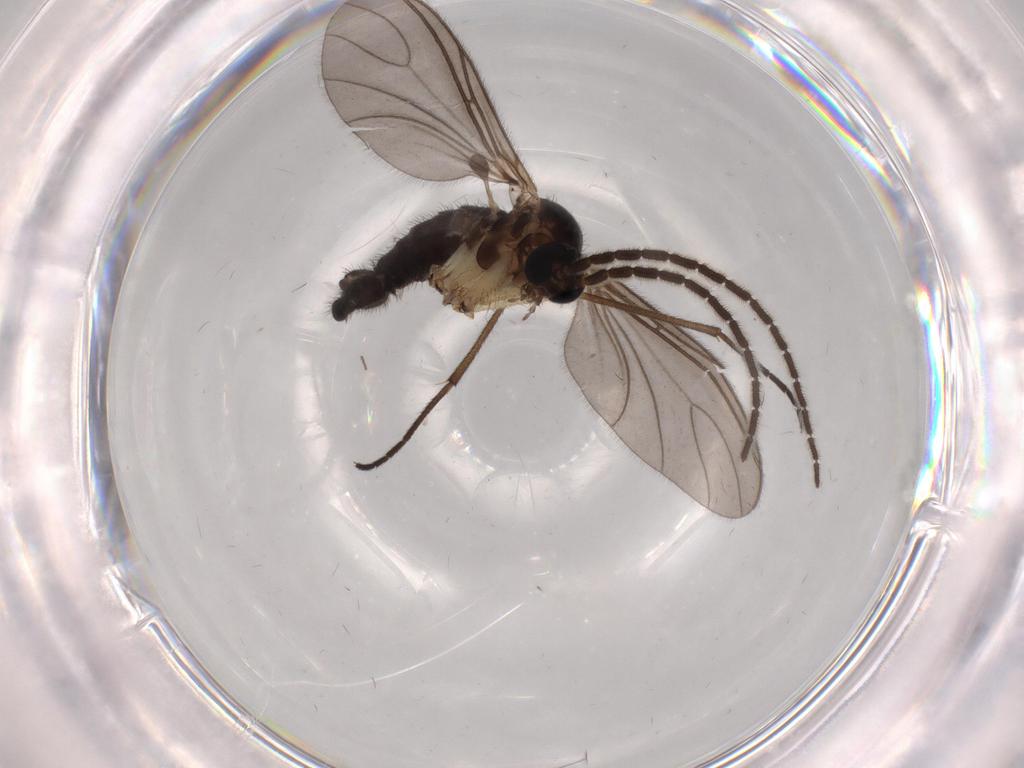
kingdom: Animalia
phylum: Arthropoda
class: Insecta
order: Diptera
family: Sciaridae
